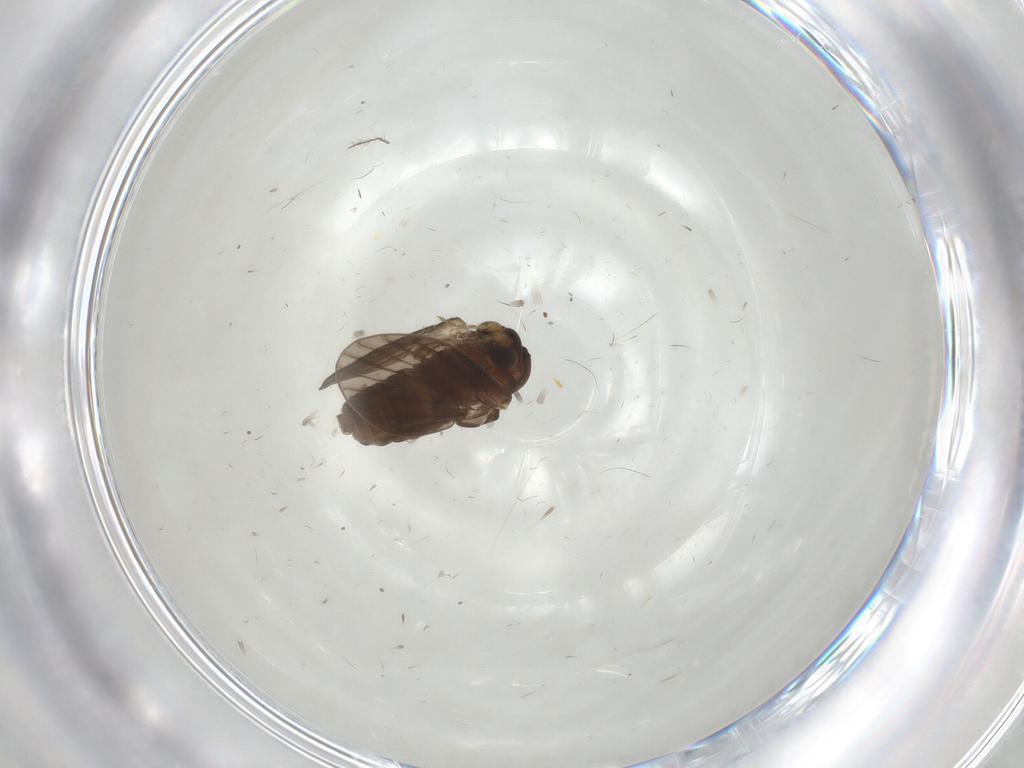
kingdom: Animalia
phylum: Arthropoda
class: Insecta
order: Diptera
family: Psychodidae
